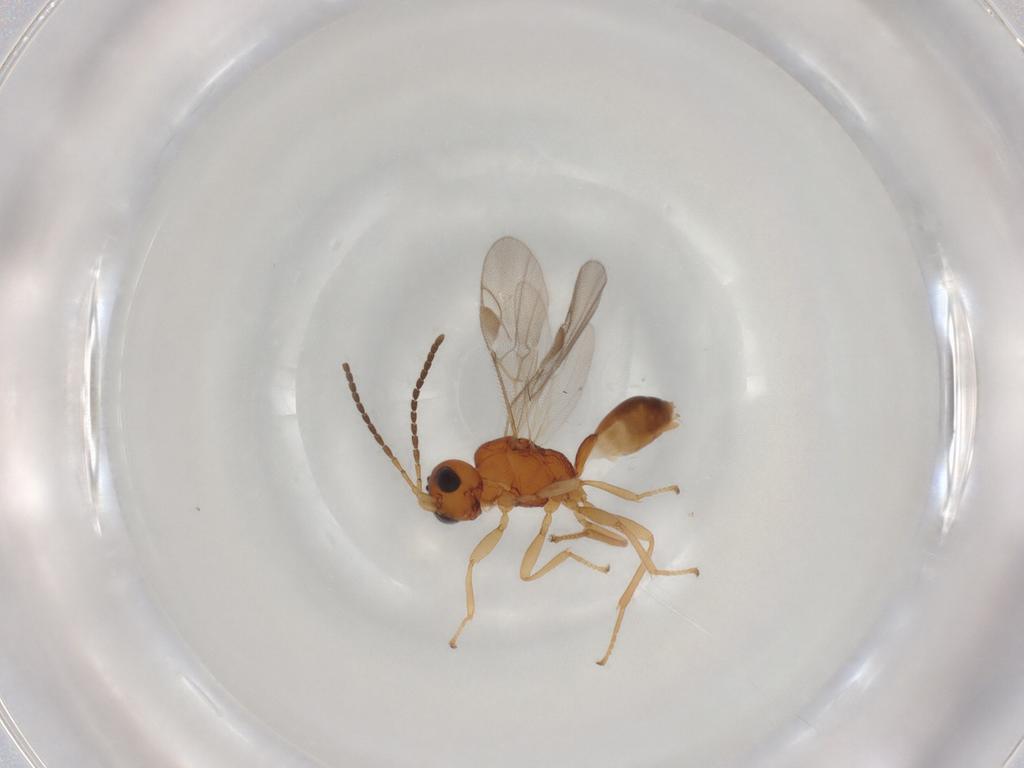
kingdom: Animalia
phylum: Arthropoda
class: Insecta
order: Hymenoptera
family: Braconidae
